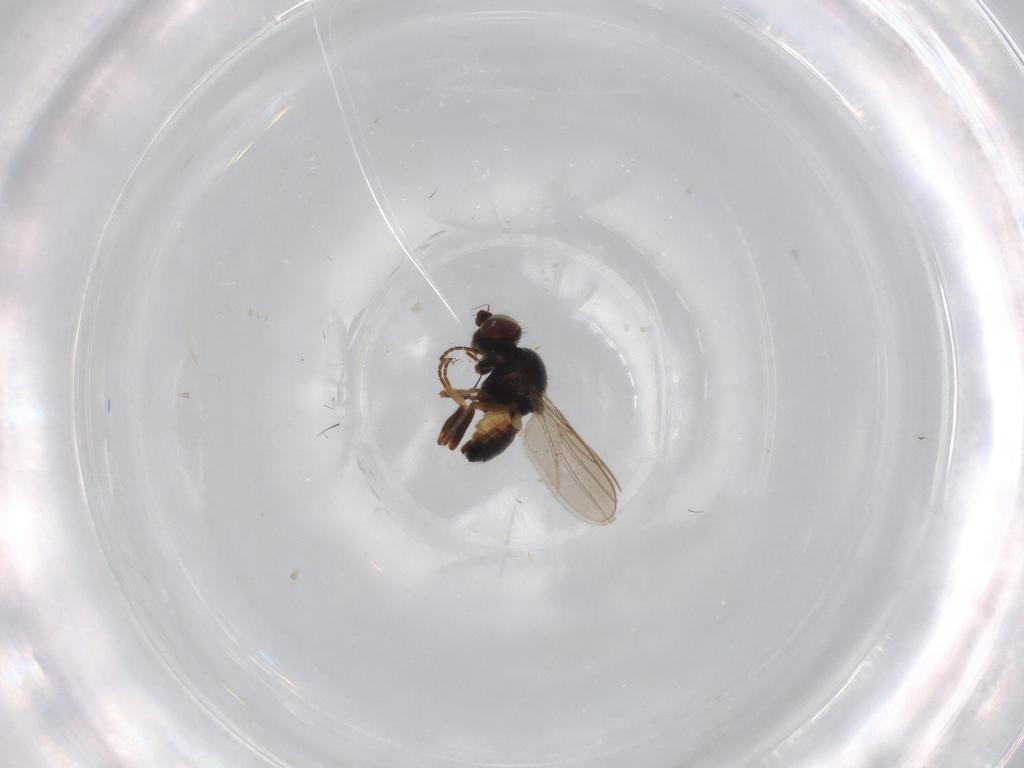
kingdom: Animalia
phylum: Arthropoda
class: Insecta
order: Diptera
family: Chloropidae
